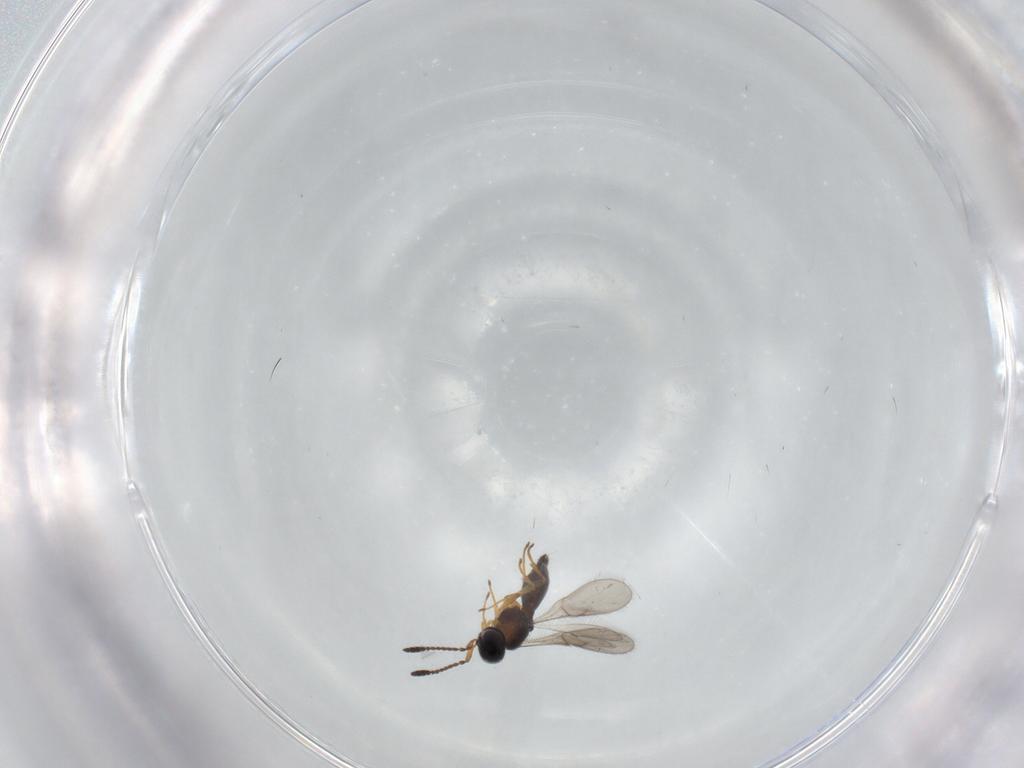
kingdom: Animalia
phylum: Arthropoda
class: Insecta
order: Hymenoptera
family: Scelionidae
